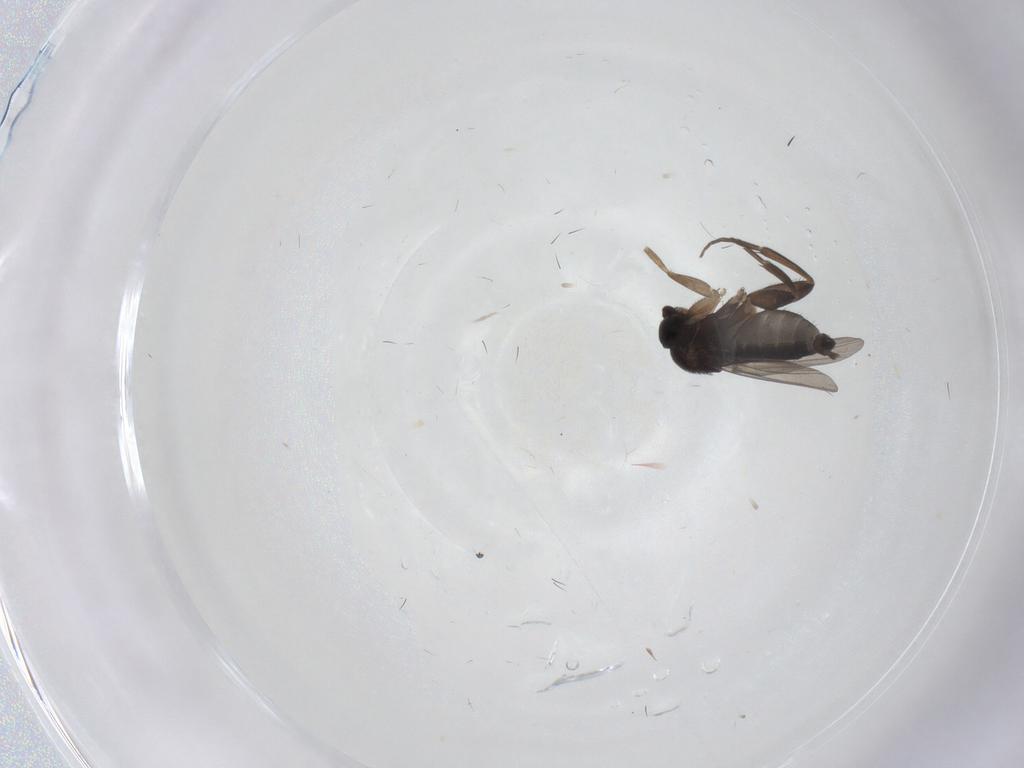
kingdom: Animalia
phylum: Arthropoda
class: Insecta
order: Diptera
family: Phoridae
